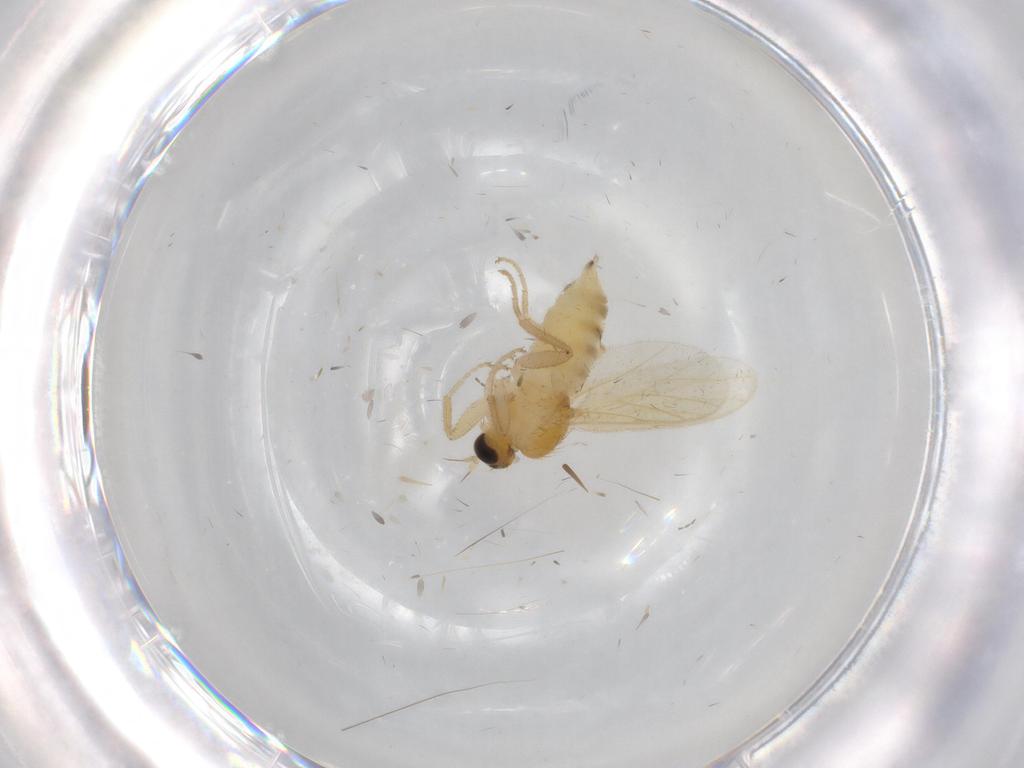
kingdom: Animalia
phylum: Arthropoda
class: Insecta
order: Diptera
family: Hybotidae
